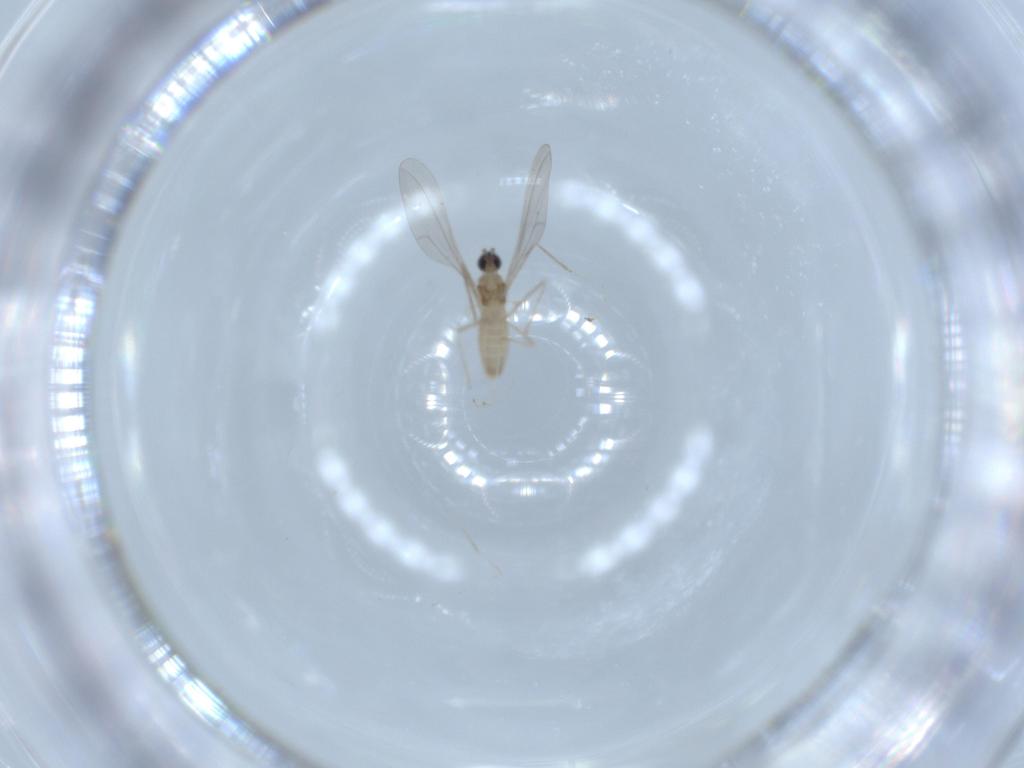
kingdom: Animalia
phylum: Arthropoda
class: Insecta
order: Diptera
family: Cecidomyiidae
